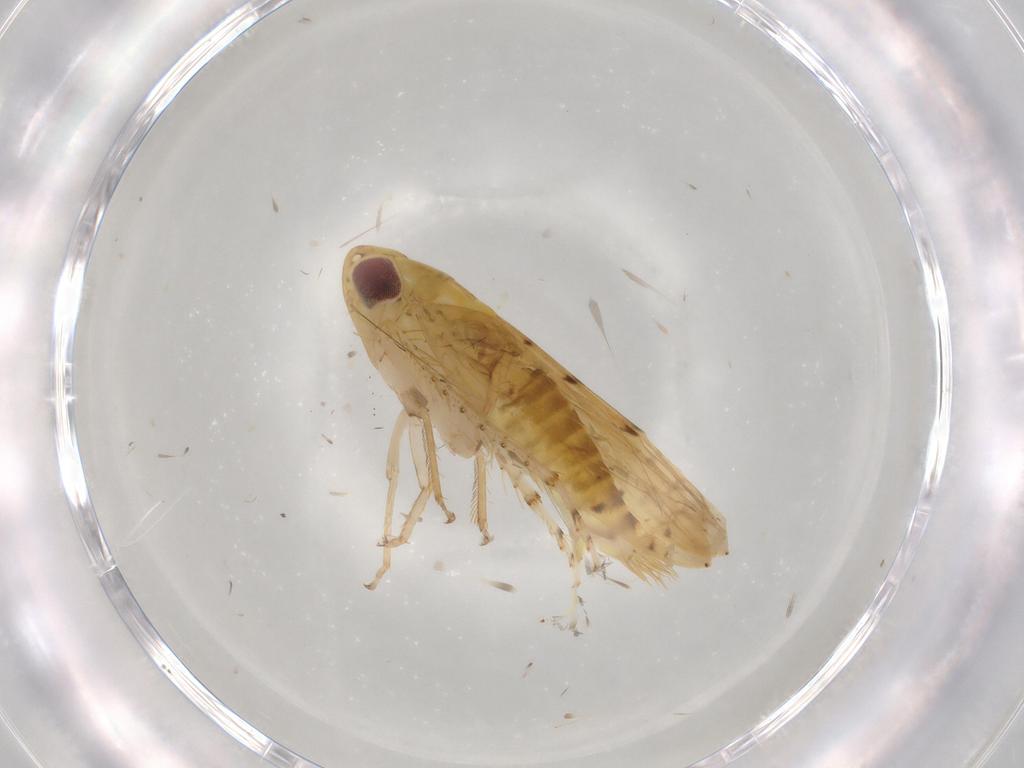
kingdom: Animalia
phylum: Arthropoda
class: Insecta
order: Hemiptera
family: Cicadellidae
